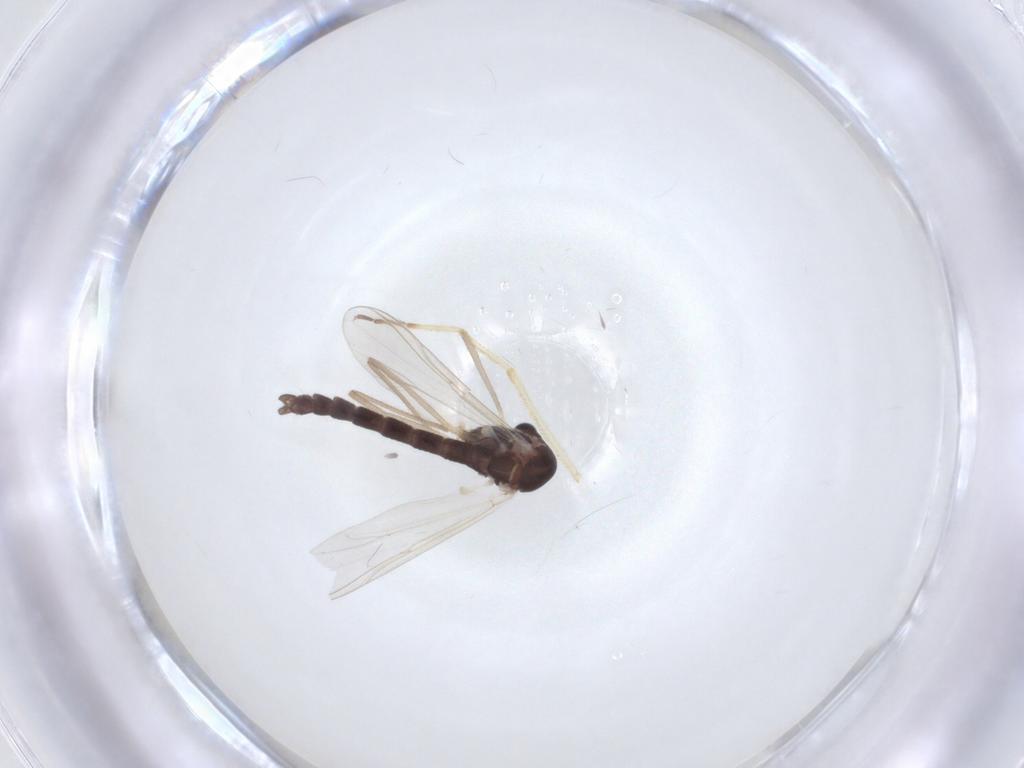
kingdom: Animalia
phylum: Arthropoda
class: Insecta
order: Diptera
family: Chironomidae
